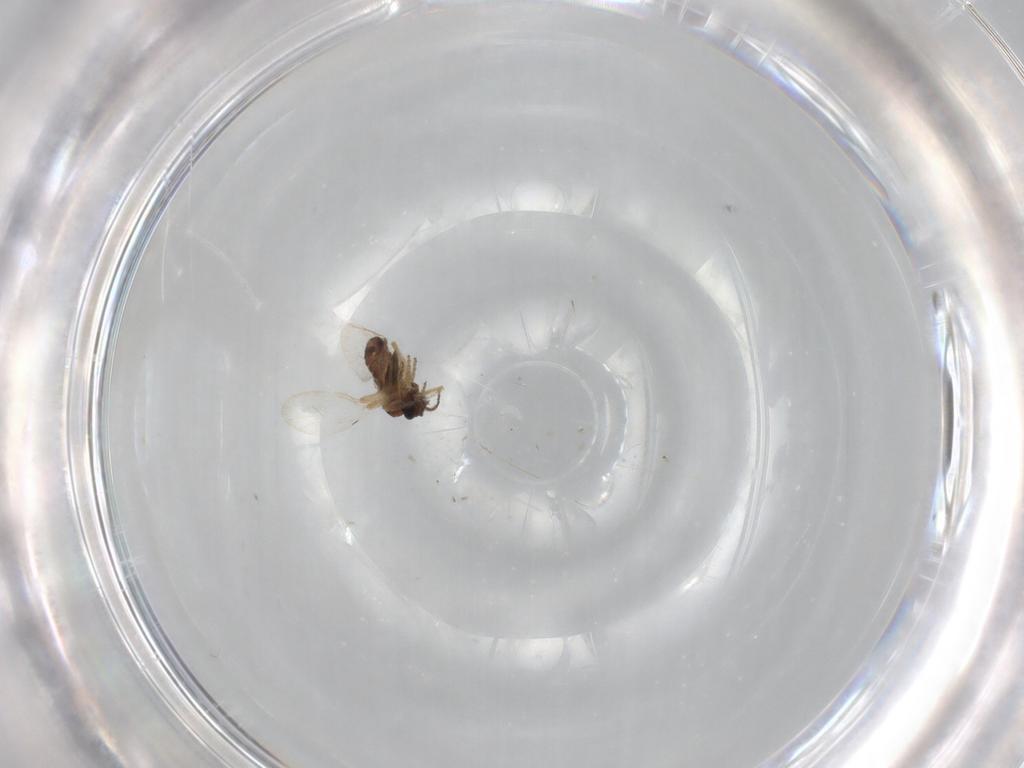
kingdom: Animalia
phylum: Arthropoda
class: Insecta
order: Diptera
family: Ceratopogonidae
